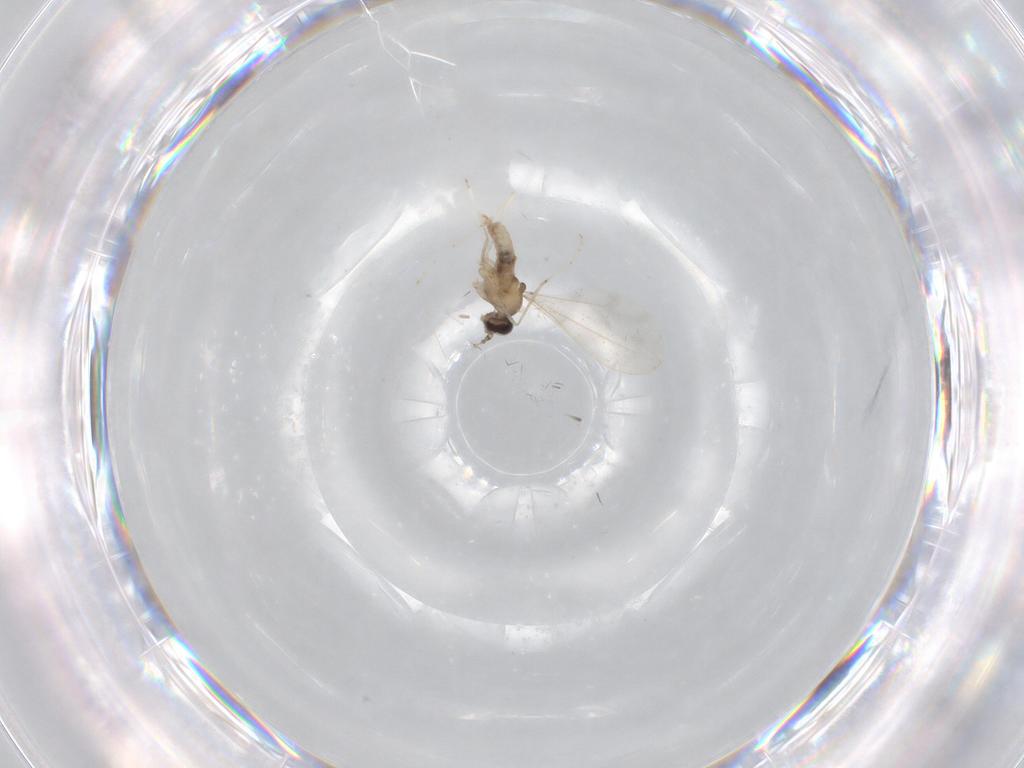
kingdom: Animalia
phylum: Arthropoda
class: Insecta
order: Diptera
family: Cecidomyiidae
